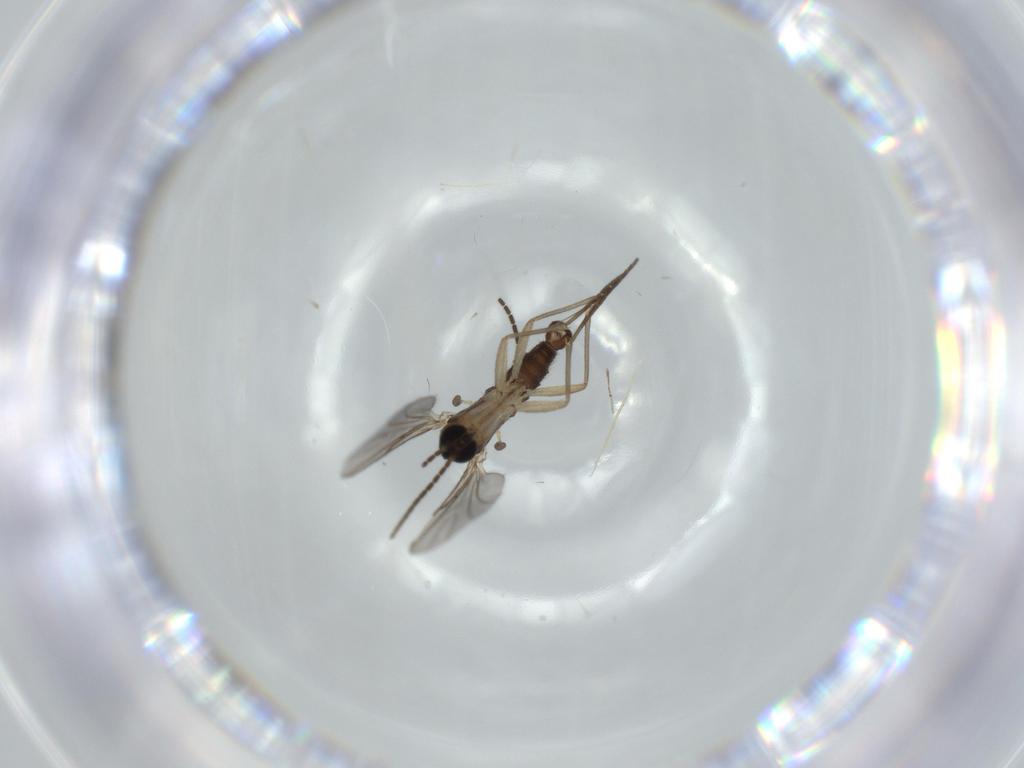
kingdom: Animalia
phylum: Arthropoda
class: Insecta
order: Diptera
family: Sciaridae
